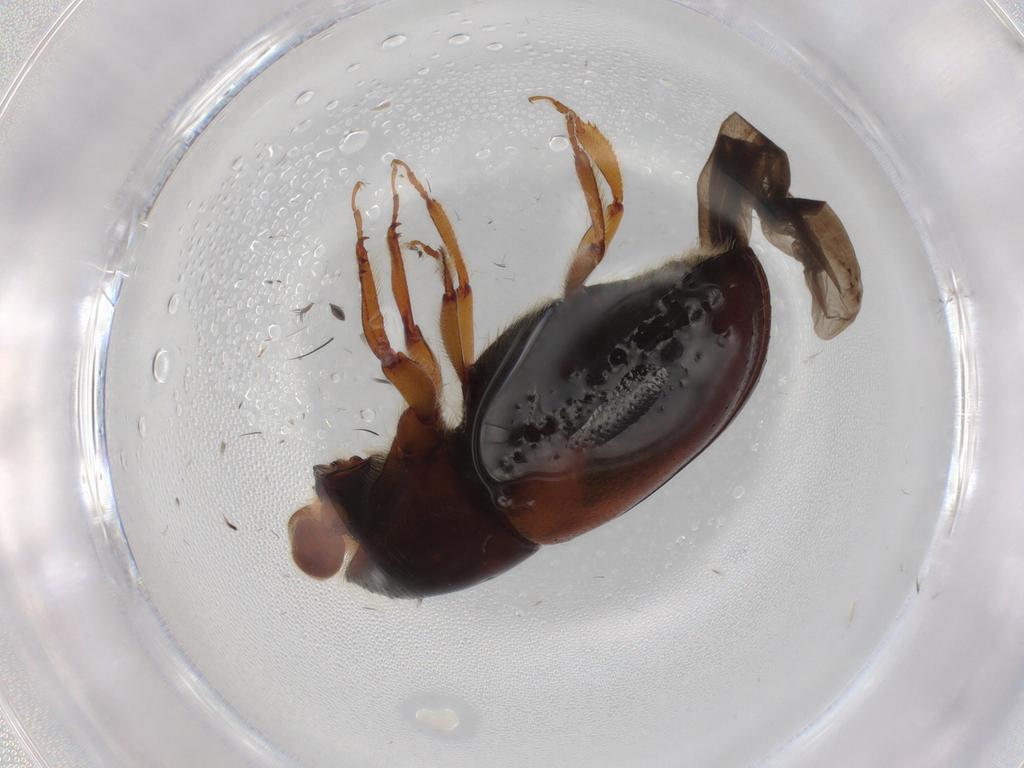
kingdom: Animalia
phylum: Arthropoda
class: Insecta
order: Coleoptera
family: Curculionidae
